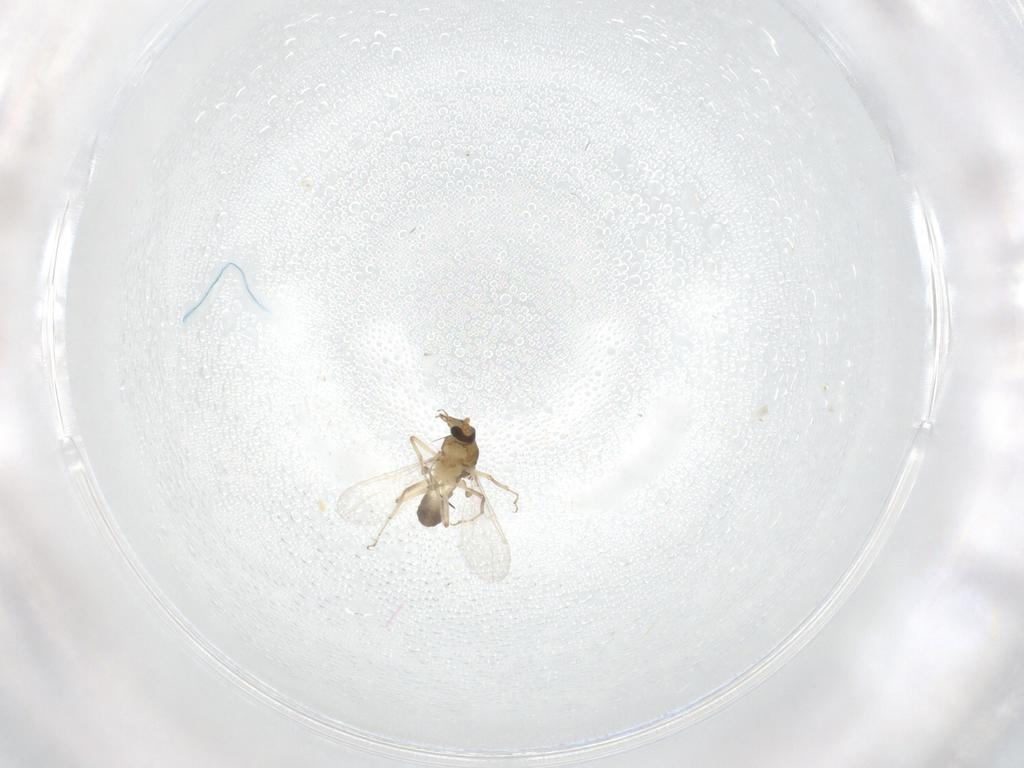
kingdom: Animalia
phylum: Arthropoda
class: Insecta
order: Diptera
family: Ceratopogonidae
